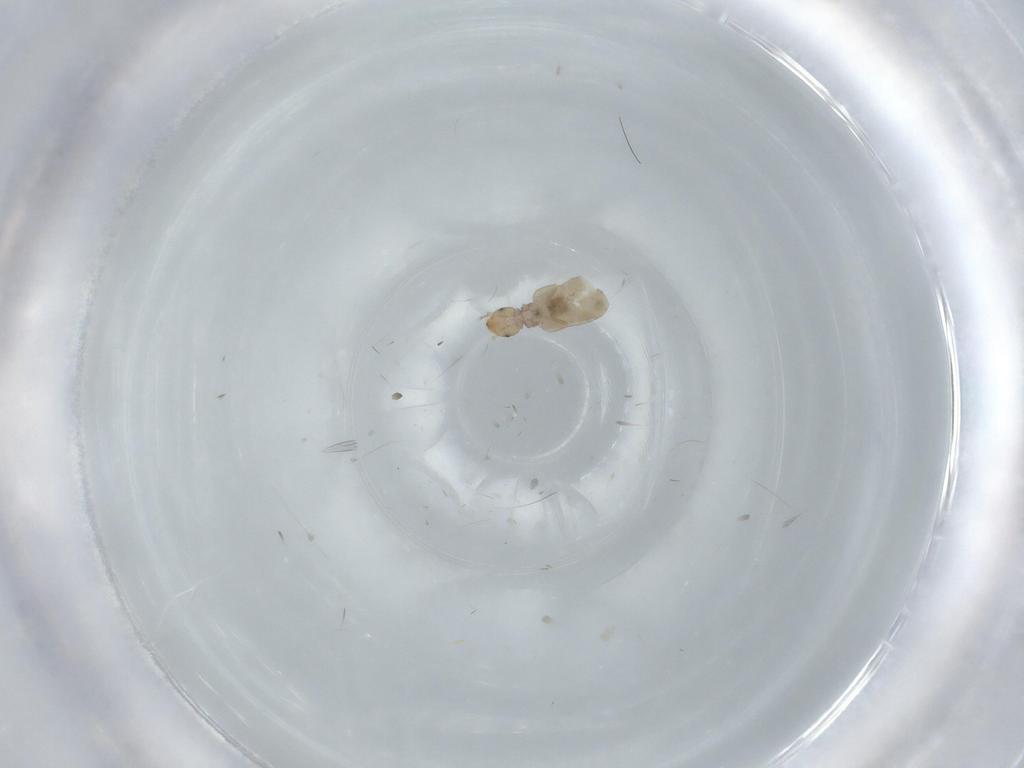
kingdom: Animalia
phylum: Arthropoda
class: Insecta
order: Psocodea
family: Liposcelididae
